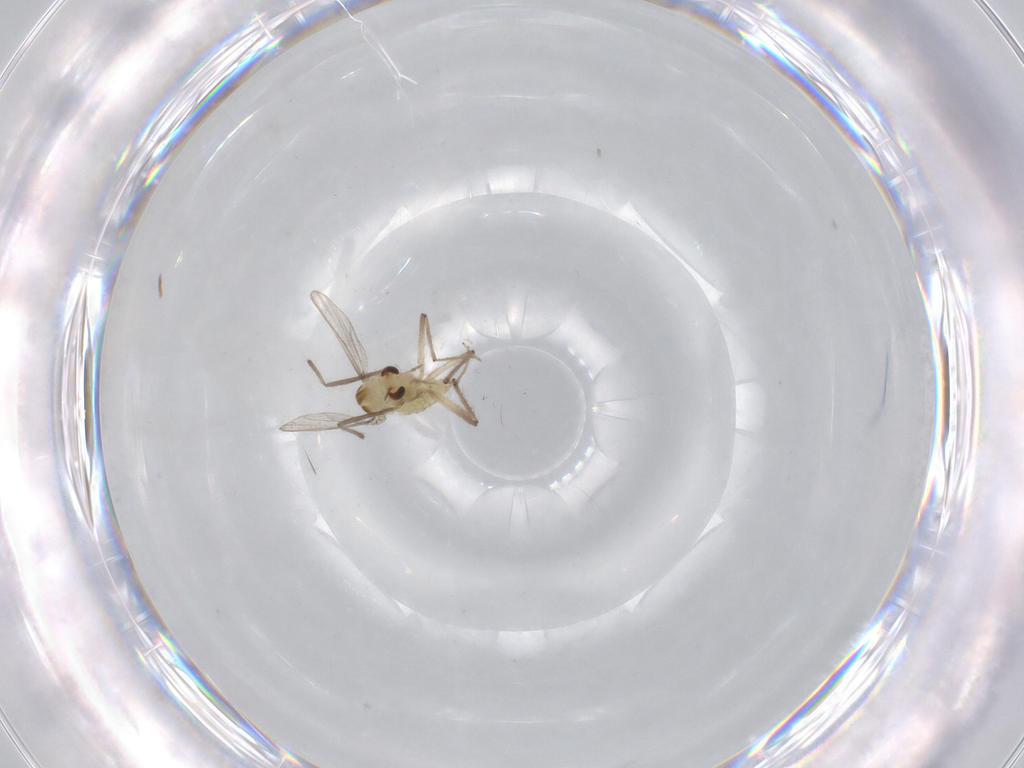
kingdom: Animalia
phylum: Arthropoda
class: Insecta
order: Diptera
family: Chironomidae
